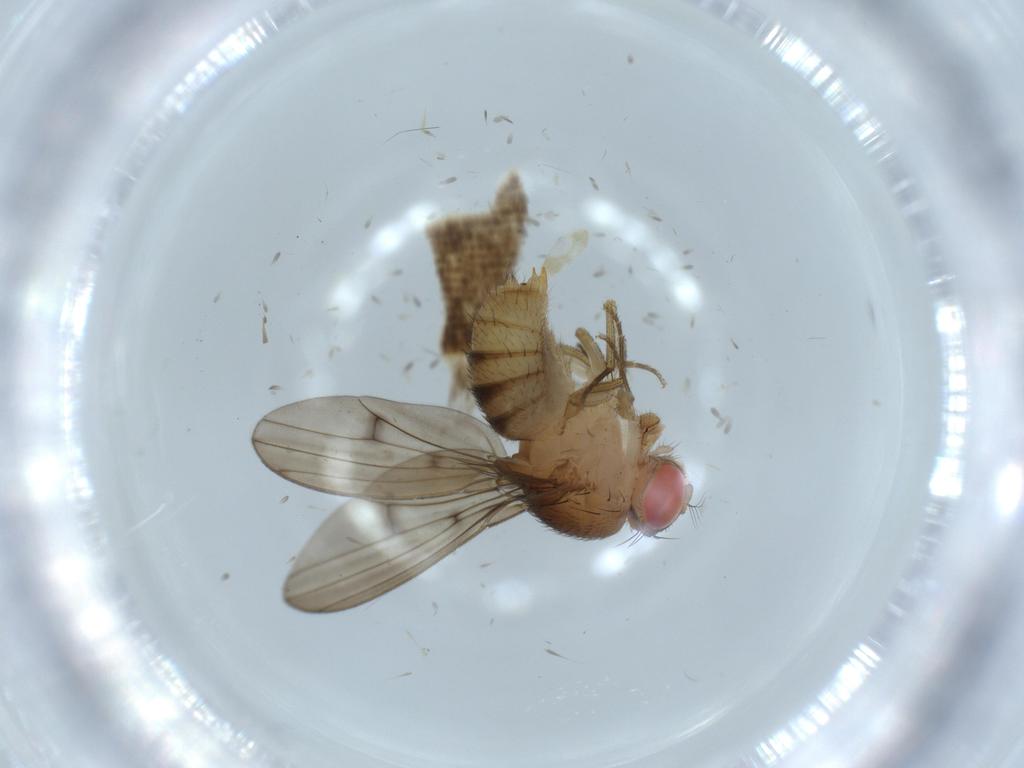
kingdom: Animalia
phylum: Arthropoda
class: Insecta
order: Diptera
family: Drosophilidae
